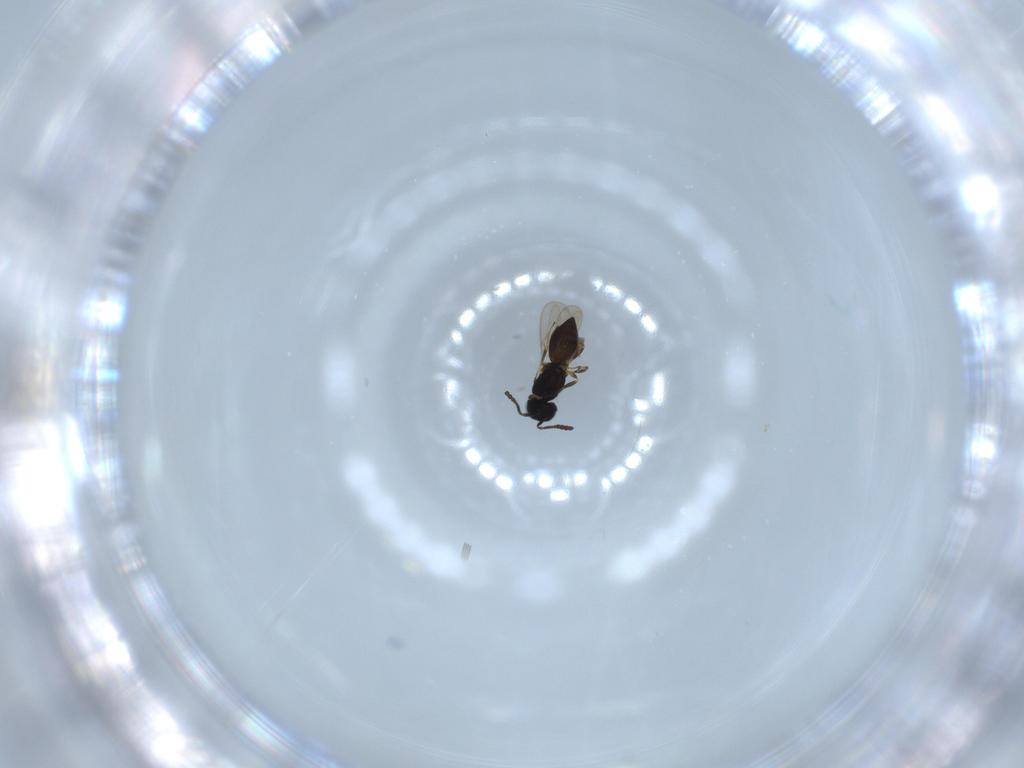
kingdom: Animalia
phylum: Arthropoda
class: Insecta
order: Hymenoptera
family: Scelionidae
